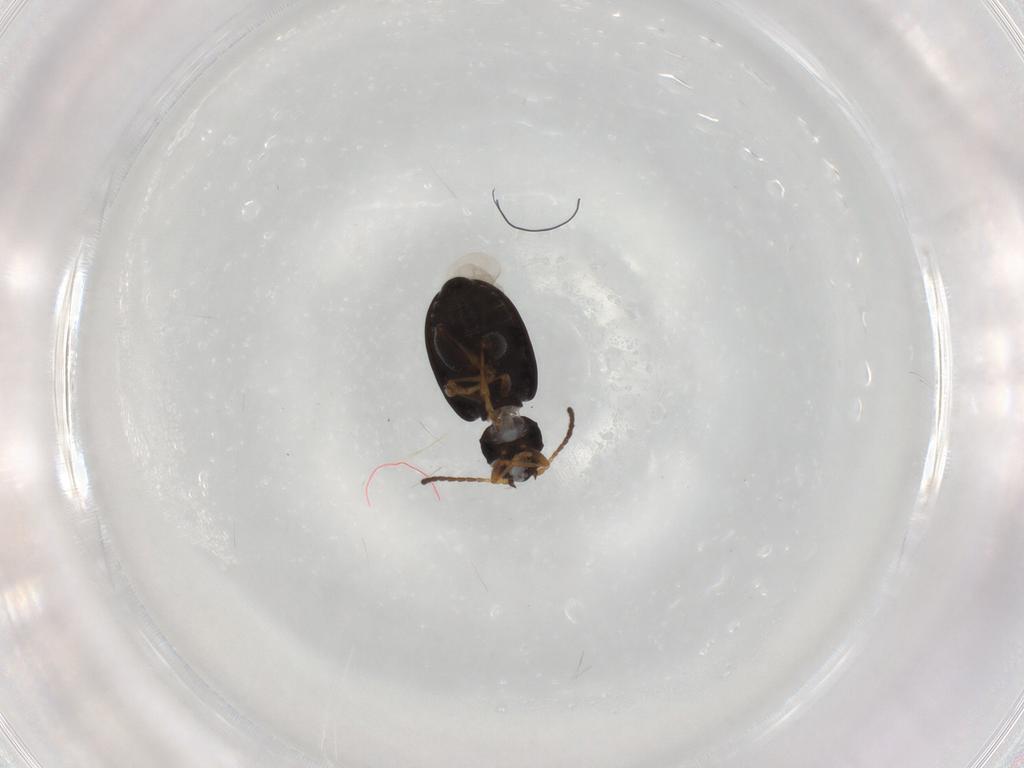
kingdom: Animalia
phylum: Arthropoda
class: Insecta
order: Coleoptera
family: Chrysomelidae
